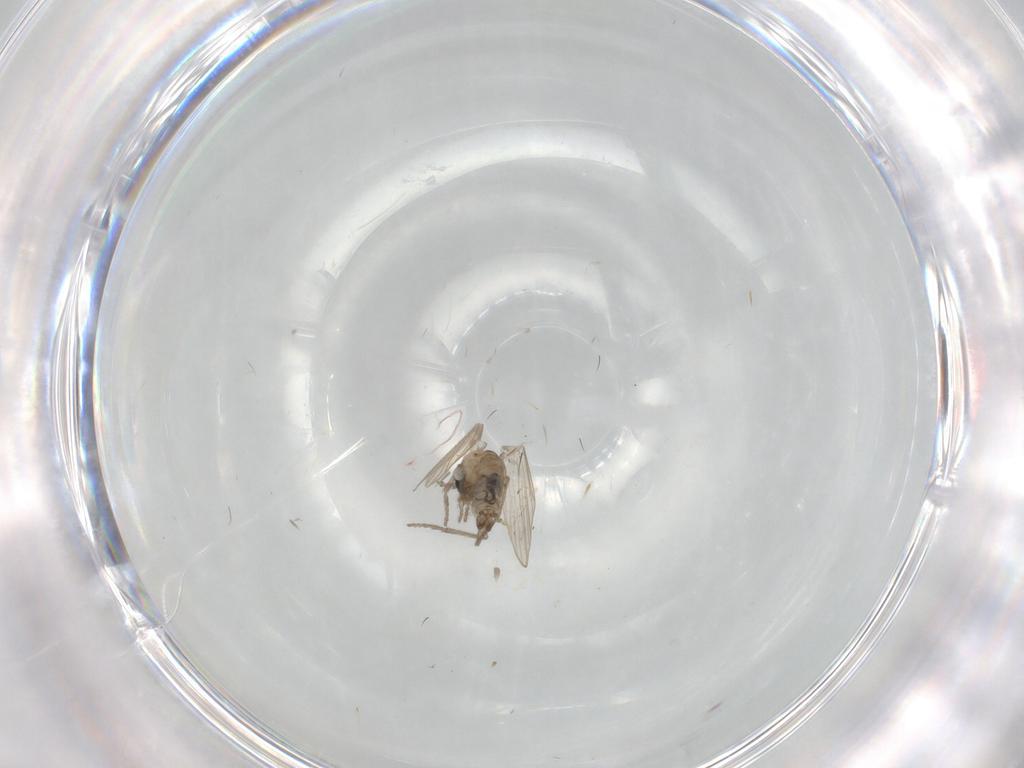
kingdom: Animalia
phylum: Arthropoda
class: Insecta
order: Diptera
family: Psychodidae
